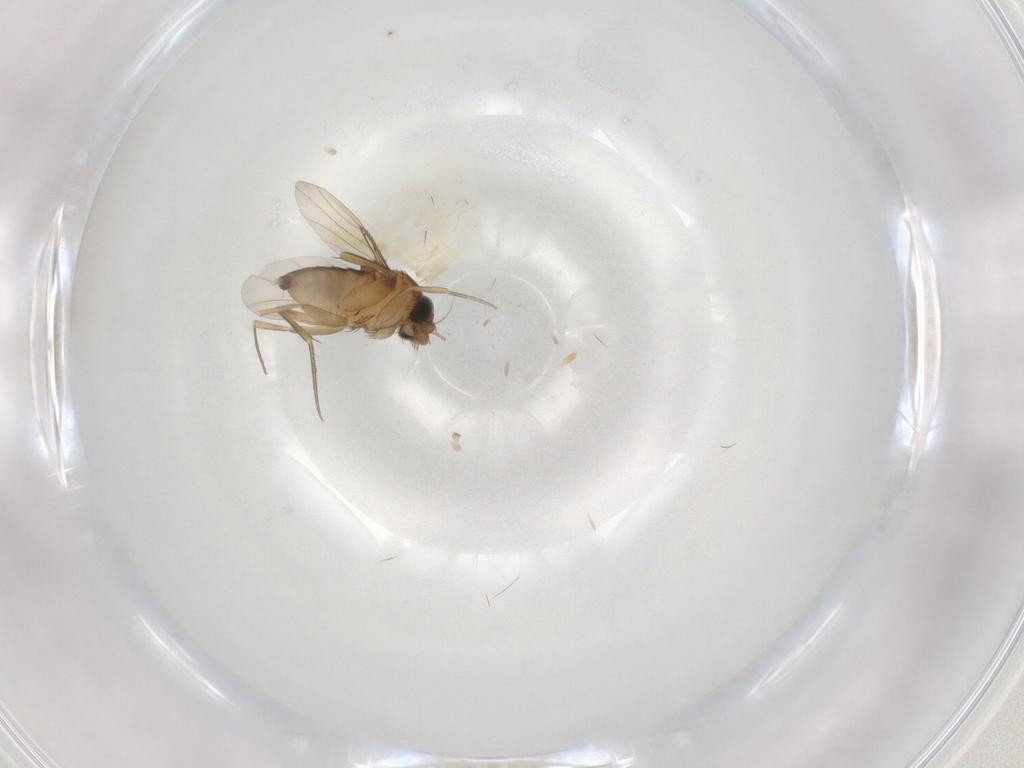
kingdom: Animalia
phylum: Arthropoda
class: Insecta
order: Diptera
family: Phoridae
